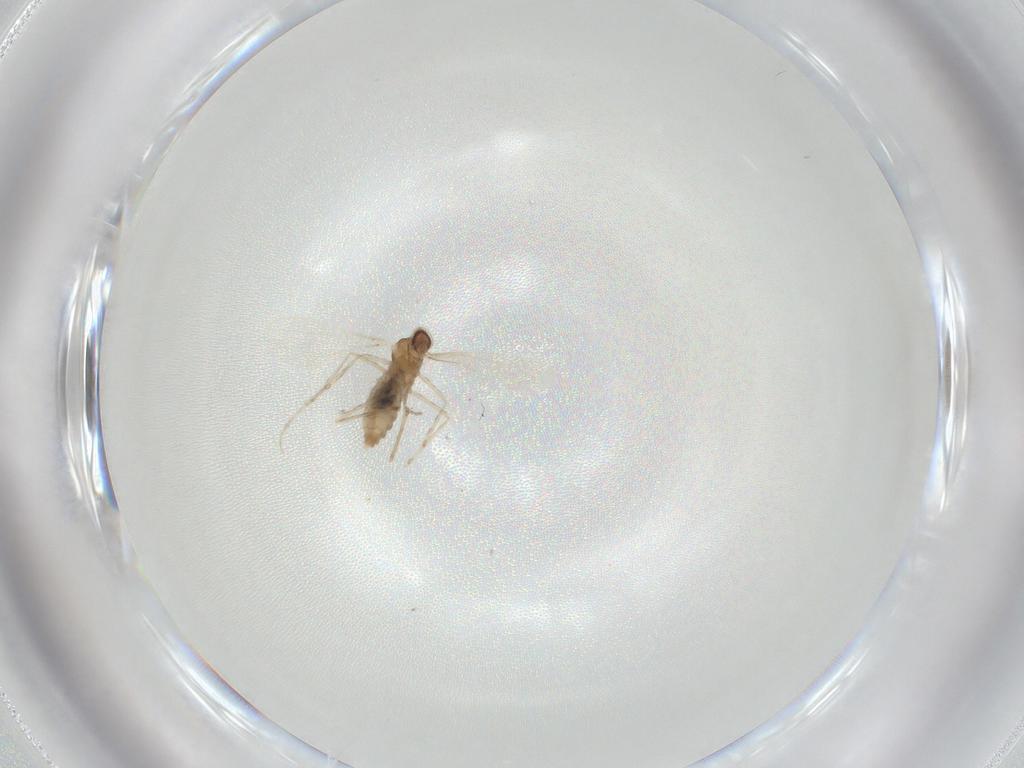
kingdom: Animalia
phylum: Arthropoda
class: Insecta
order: Diptera
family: Cecidomyiidae
